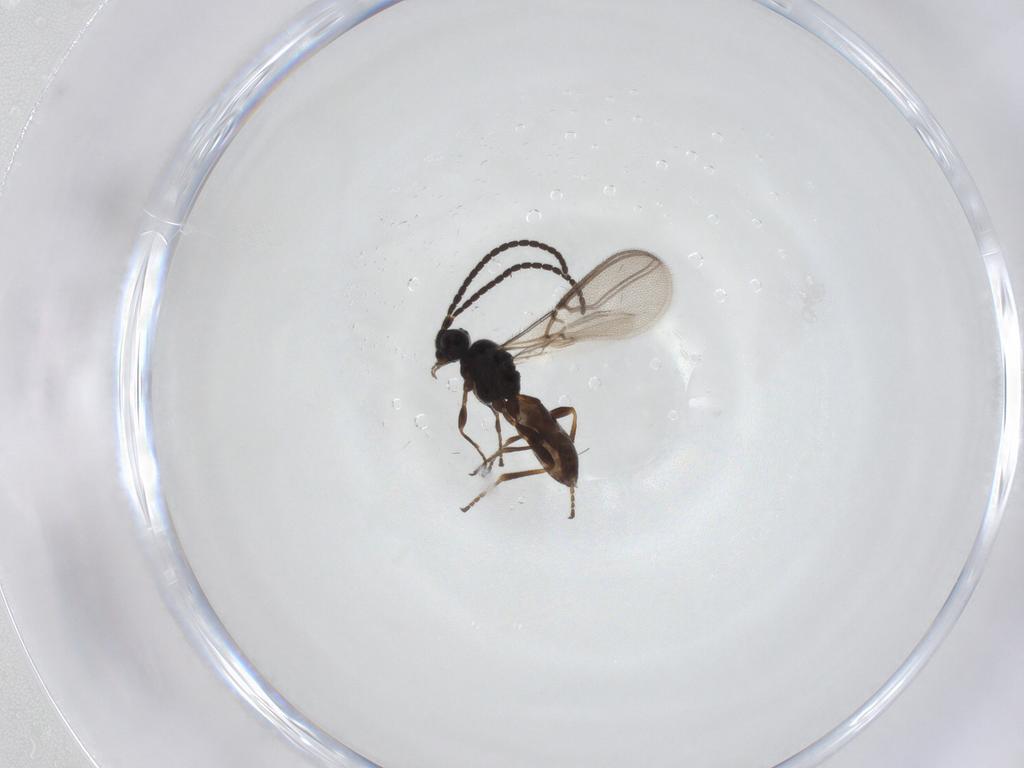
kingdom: Animalia
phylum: Arthropoda
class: Insecta
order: Hymenoptera
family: Braconidae
